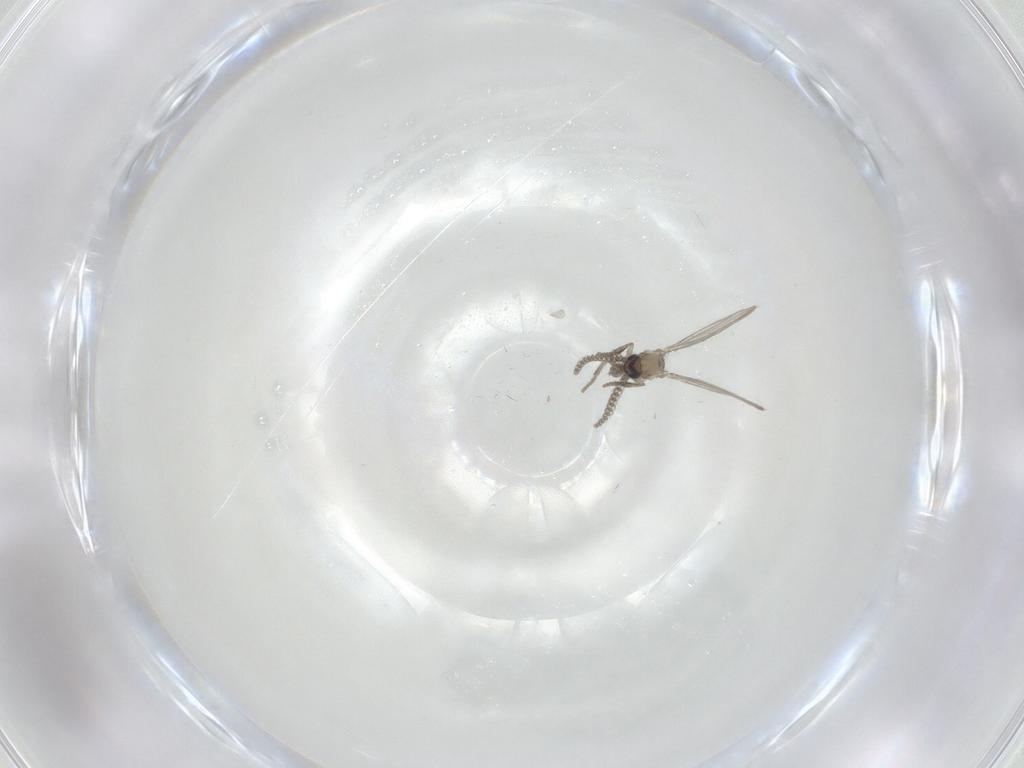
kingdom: Animalia
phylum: Arthropoda
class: Insecta
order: Diptera
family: Psychodidae
